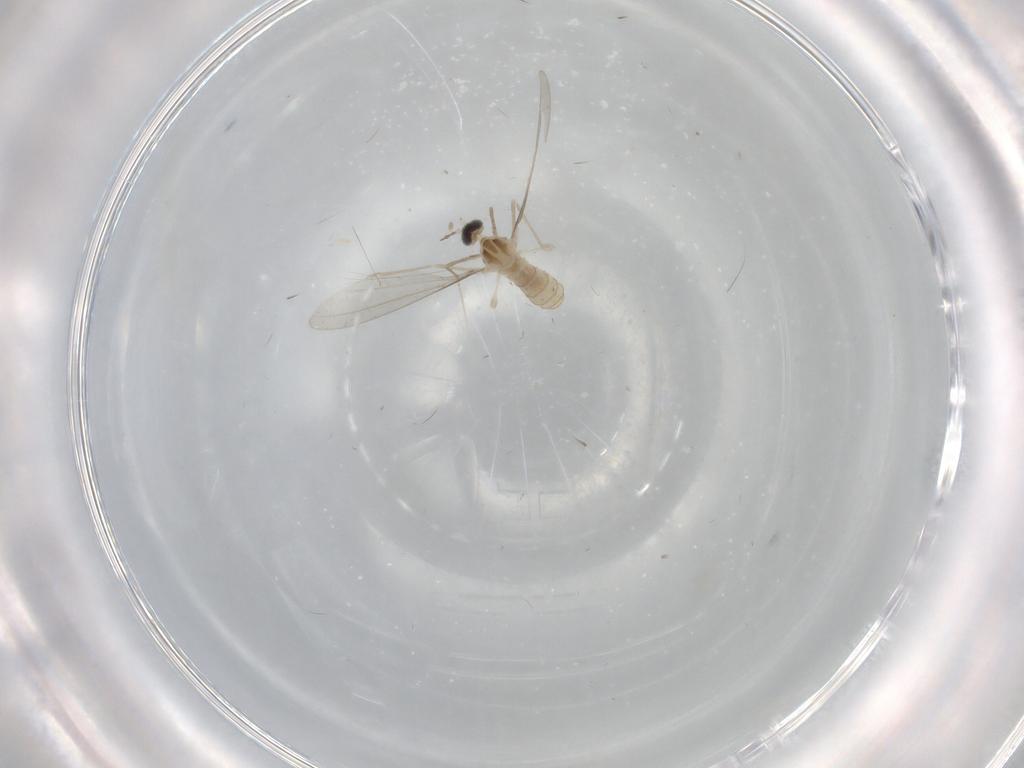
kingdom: Animalia
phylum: Arthropoda
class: Insecta
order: Diptera
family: Cecidomyiidae
